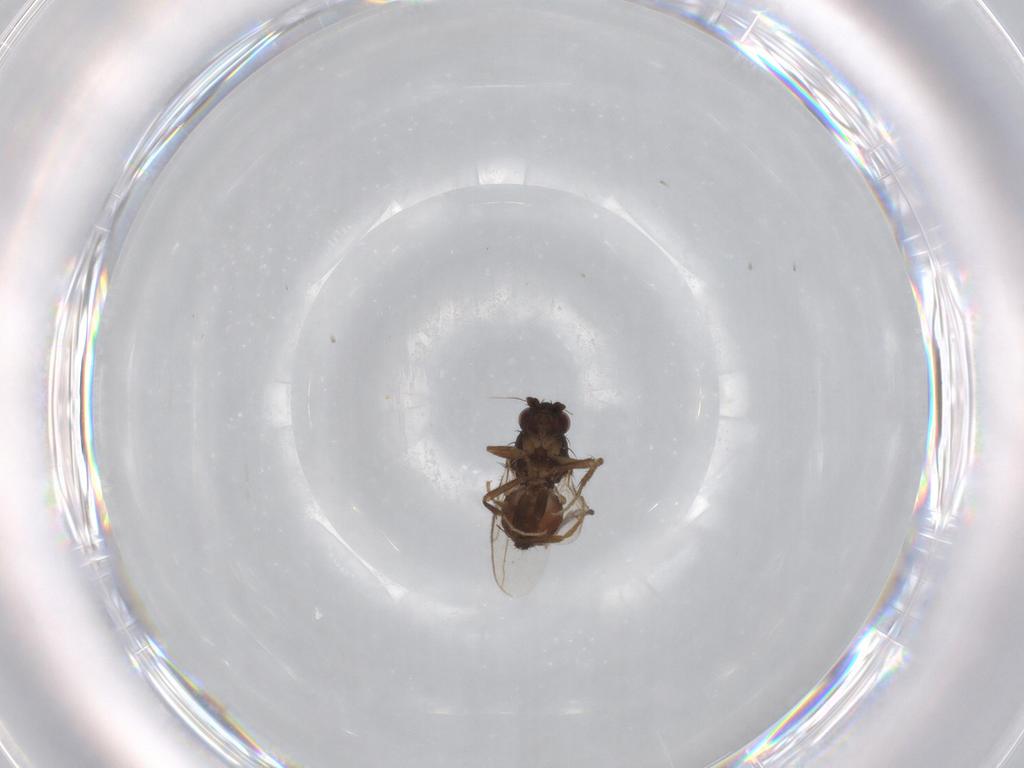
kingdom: Animalia
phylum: Arthropoda
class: Insecta
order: Diptera
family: Sphaeroceridae
